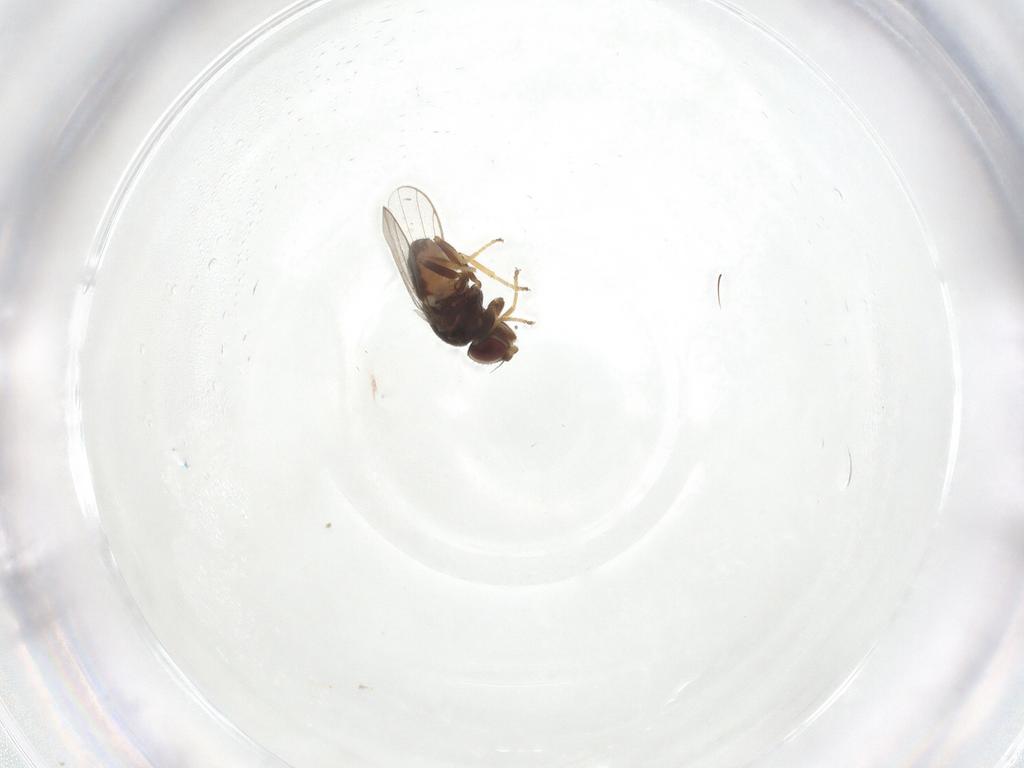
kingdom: Animalia
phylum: Arthropoda
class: Insecta
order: Diptera
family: Chloropidae
